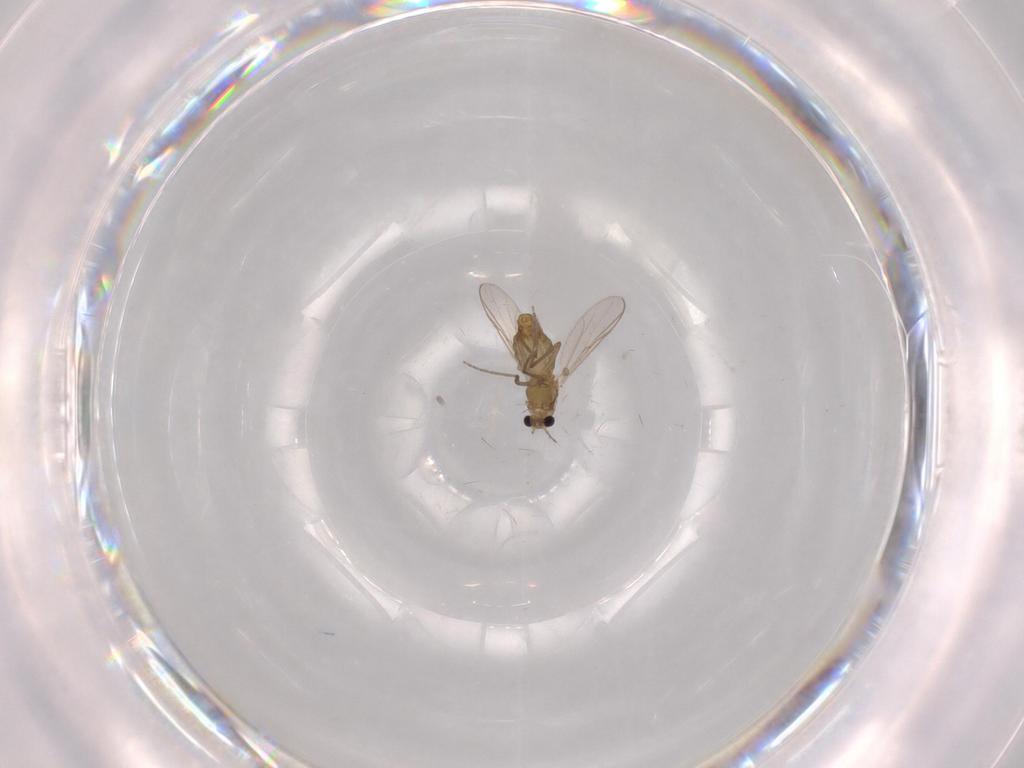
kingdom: Animalia
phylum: Arthropoda
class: Insecta
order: Diptera
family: Chironomidae
